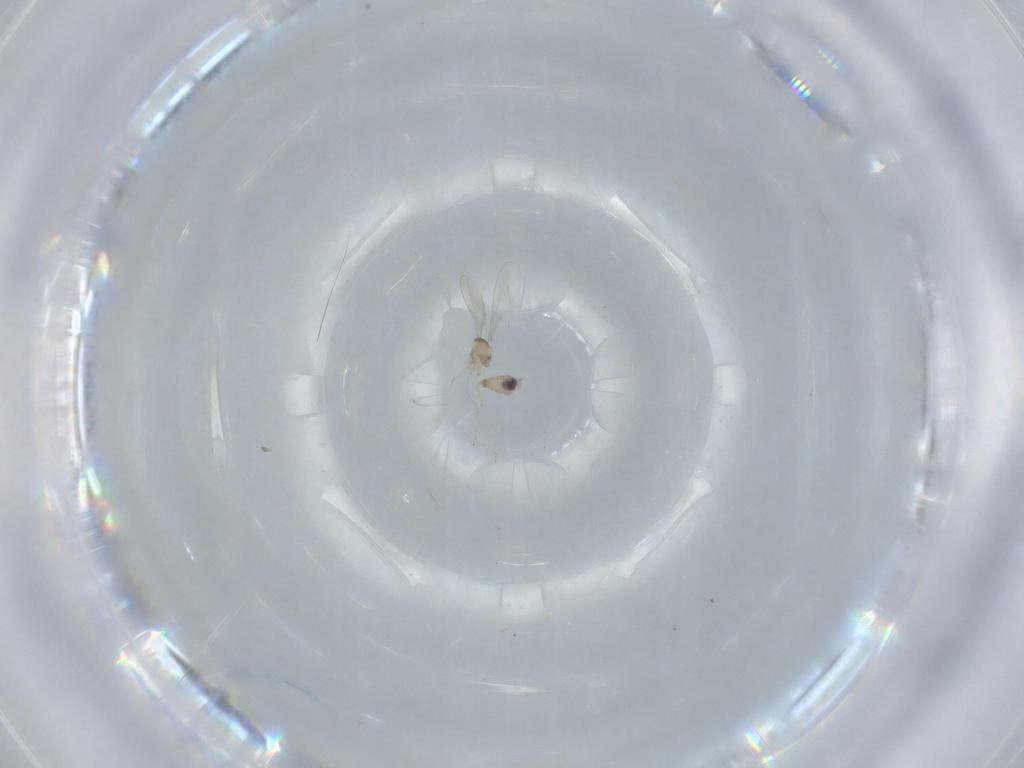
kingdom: Animalia
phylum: Arthropoda
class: Insecta
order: Diptera
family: Cecidomyiidae
